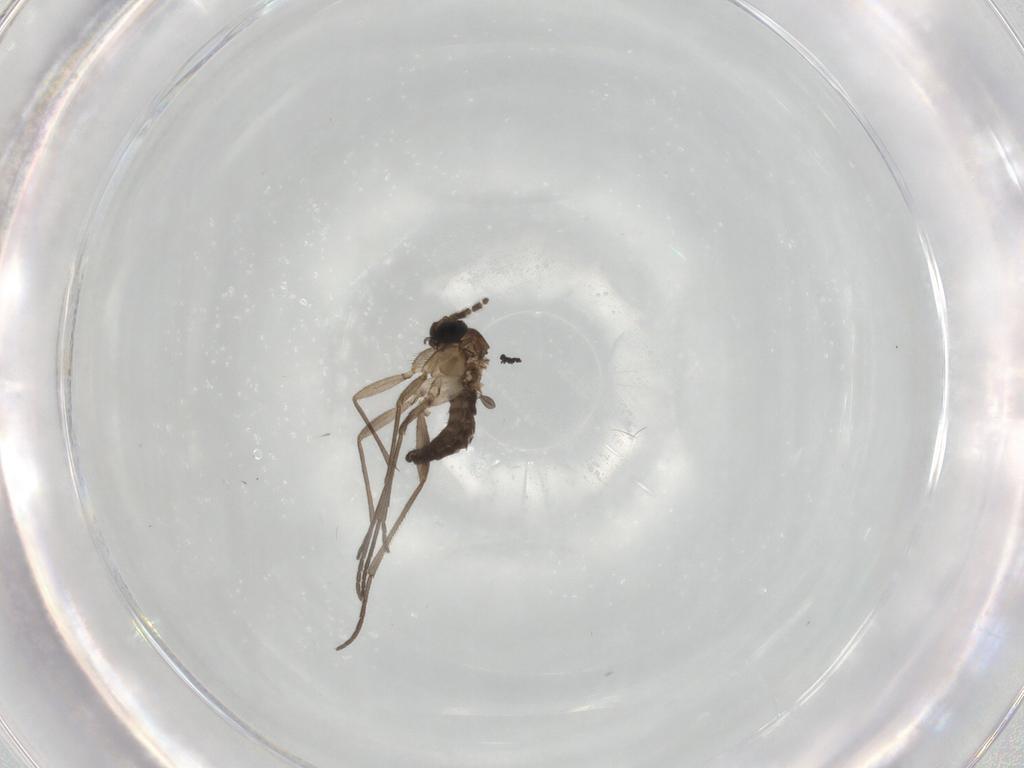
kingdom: Animalia
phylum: Arthropoda
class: Insecta
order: Diptera
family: Sciaridae
